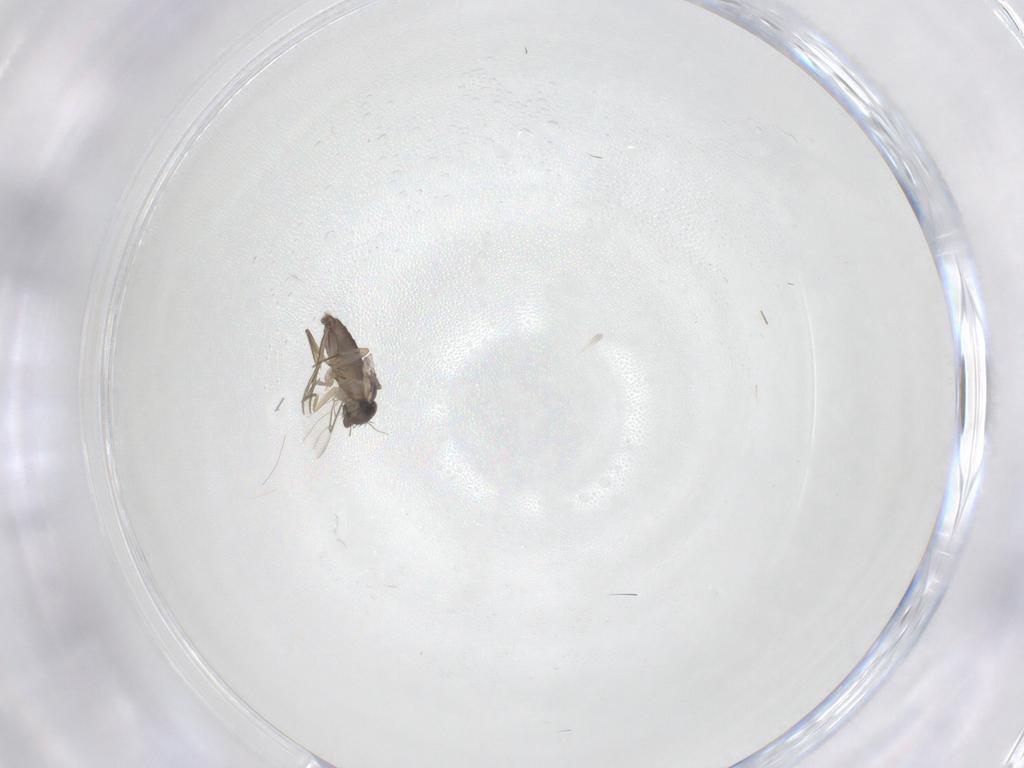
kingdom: Animalia
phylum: Arthropoda
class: Insecta
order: Diptera
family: Phoridae
